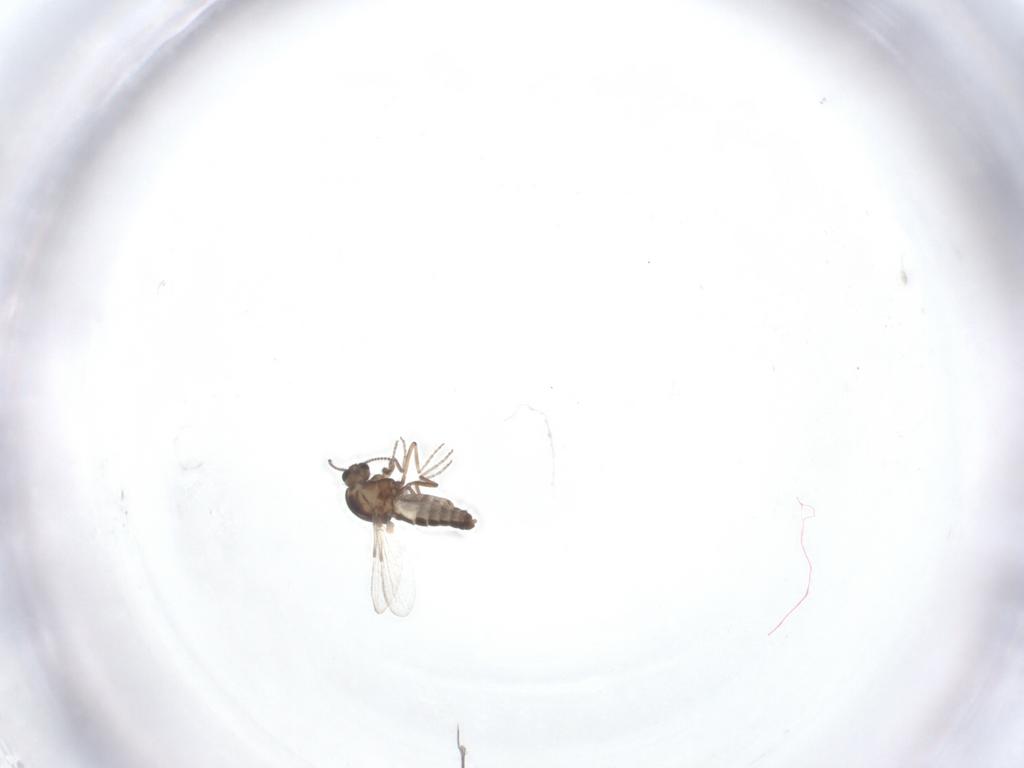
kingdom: Animalia
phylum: Arthropoda
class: Insecta
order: Diptera
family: Ceratopogonidae
